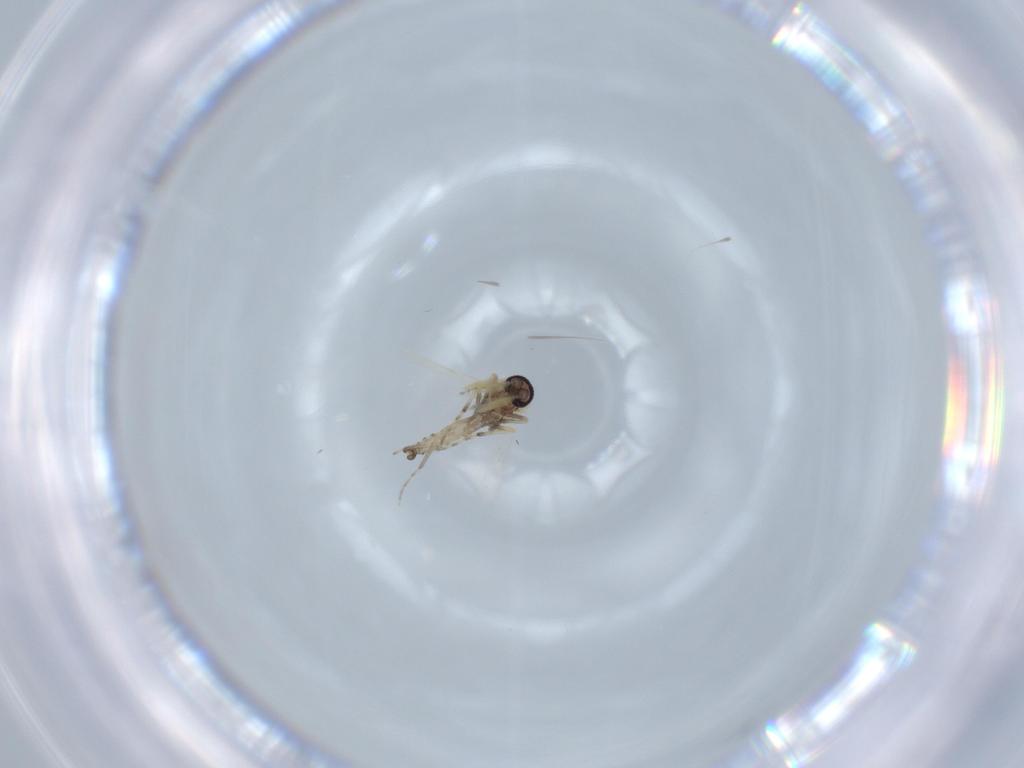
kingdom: Animalia
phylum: Arthropoda
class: Insecta
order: Diptera
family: Ceratopogonidae
